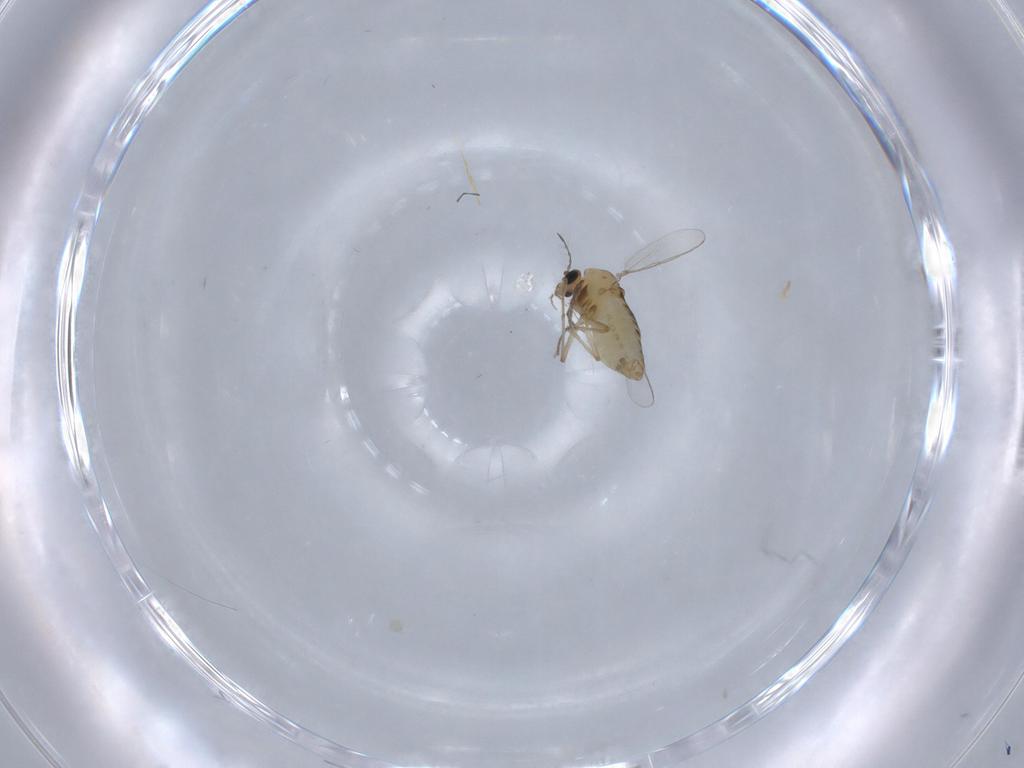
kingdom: Animalia
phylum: Arthropoda
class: Insecta
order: Diptera
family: Chironomidae
